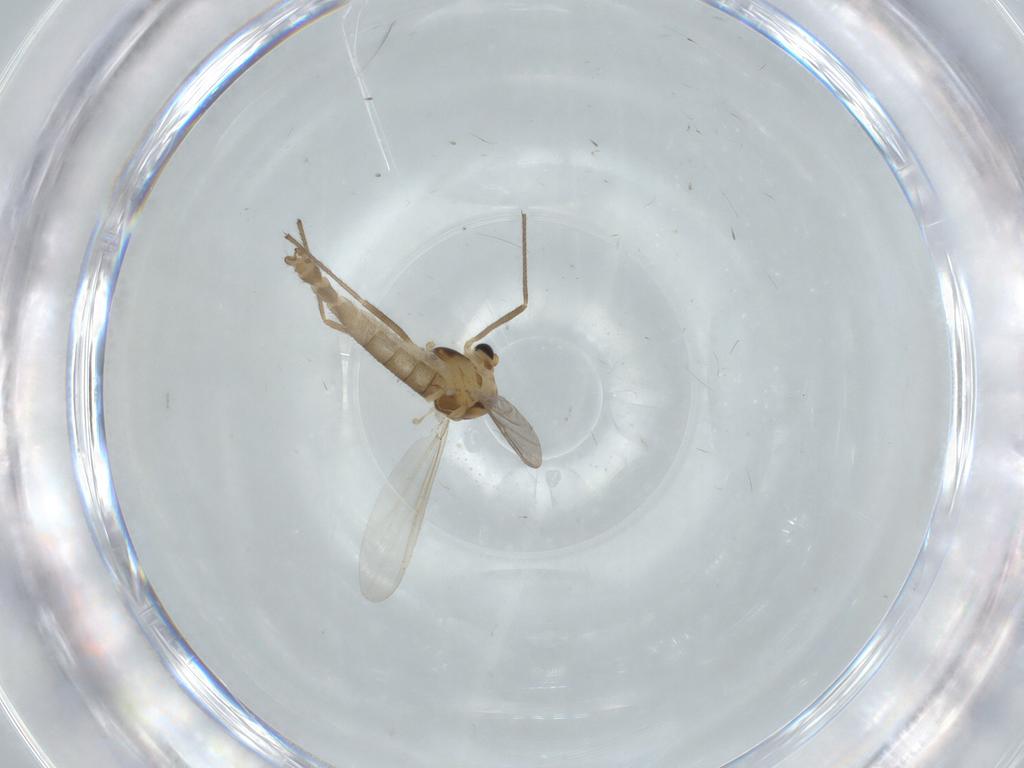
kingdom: Animalia
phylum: Arthropoda
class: Insecta
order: Diptera
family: Chironomidae
